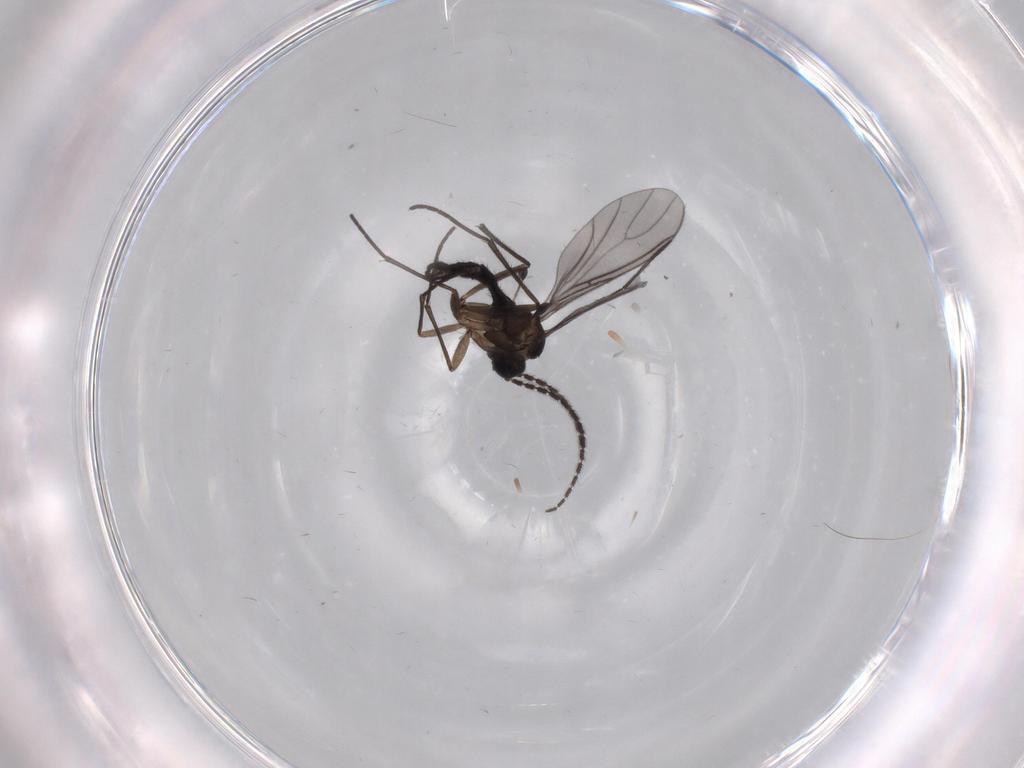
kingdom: Animalia
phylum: Arthropoda
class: Insecta
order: Diptera
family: Sciaridae
